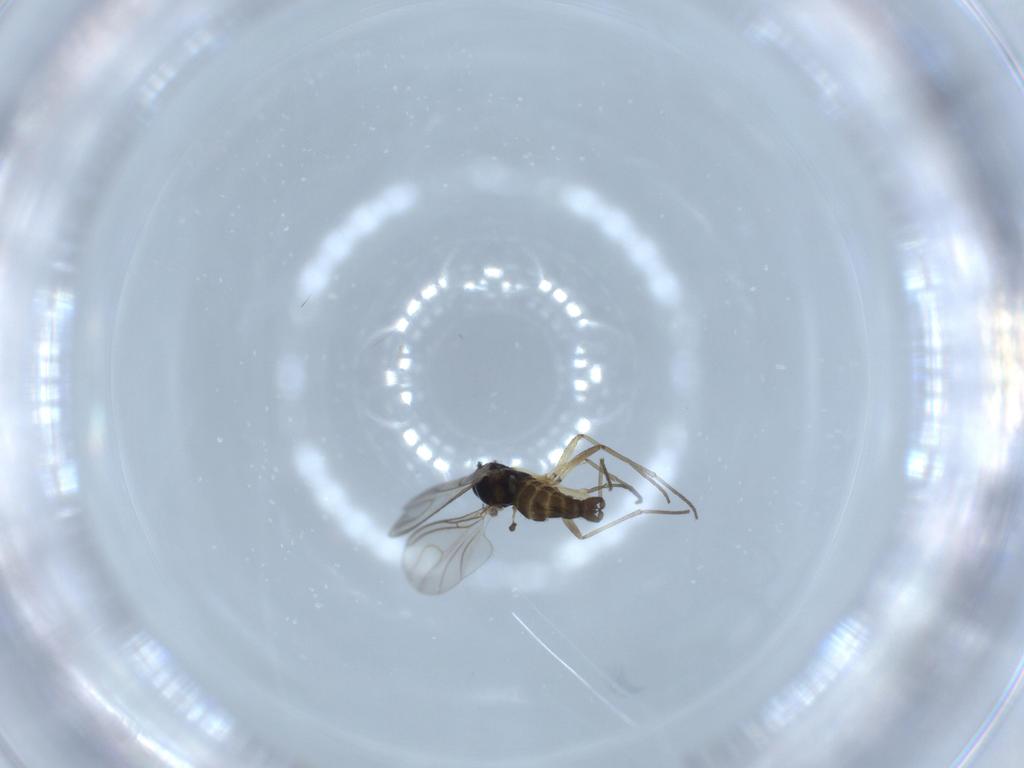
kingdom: Animalia
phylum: Arthropoda
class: Insecta
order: Diptera
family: Sciaridae
